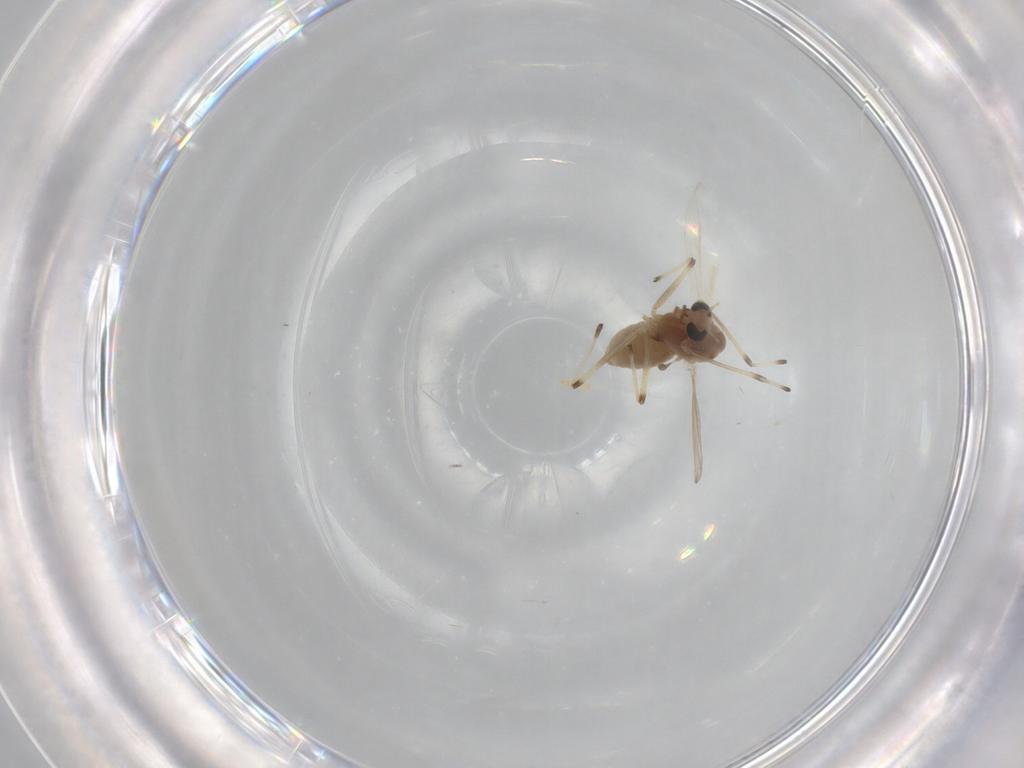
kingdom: Animalia
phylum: Arthropoda
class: Insecta
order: Diptera
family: Chironomidae
